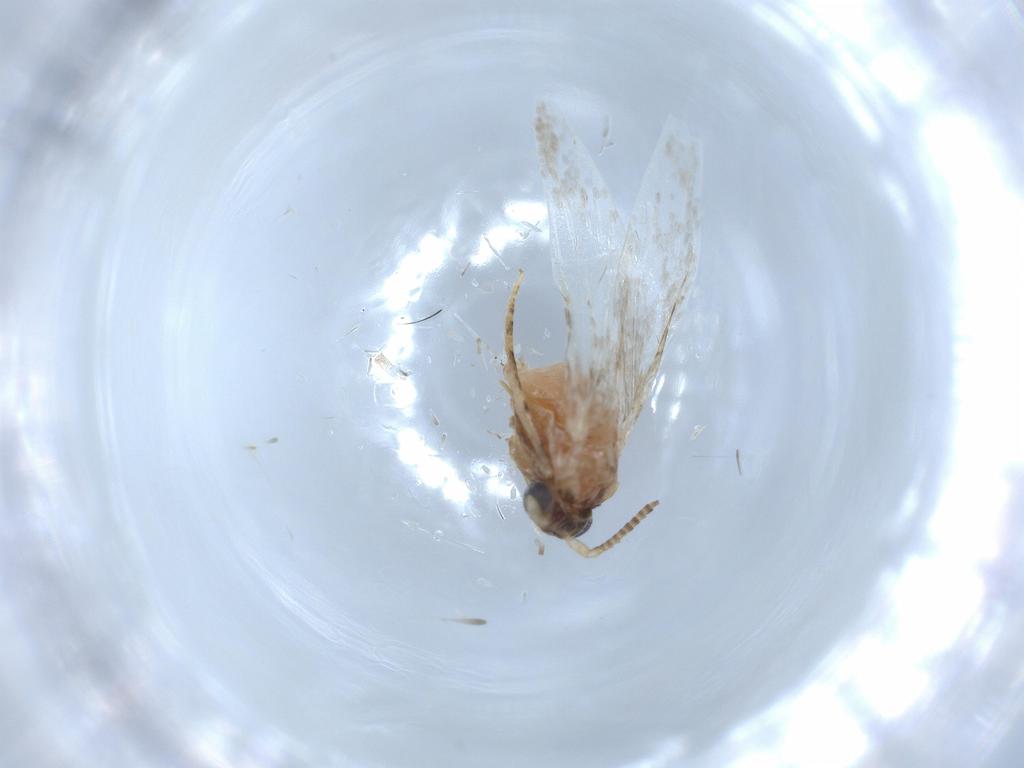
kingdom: Animalia
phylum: Arthropoda
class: Insecta
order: Lepidoptera
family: Tineidae
